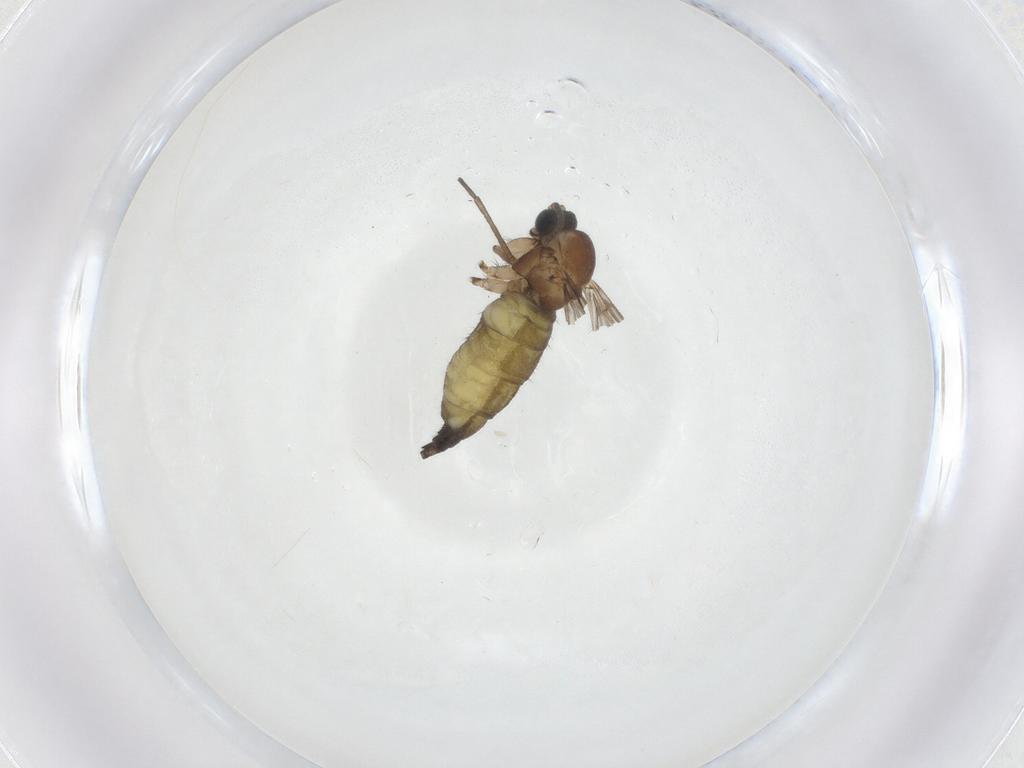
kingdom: Animalia
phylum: Arthropoda
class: Insecta
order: Diptera
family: Sciaridae
